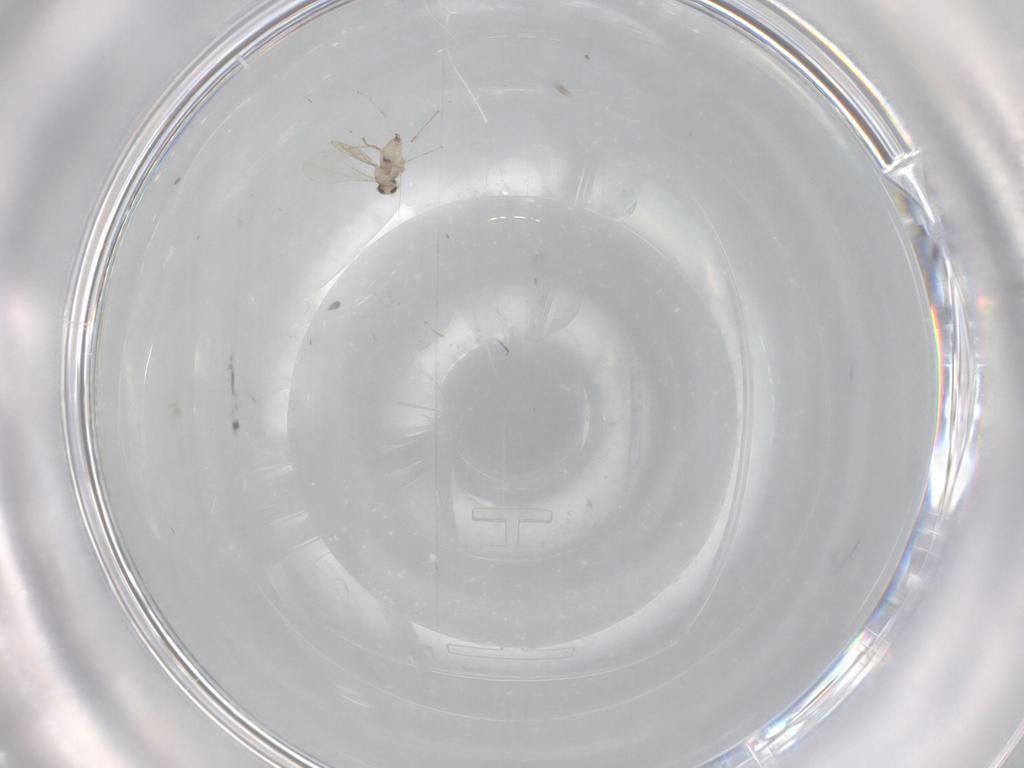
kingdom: Animalia
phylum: Arthropoda
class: Insecta
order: Diptera
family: Cecidomyiidae
